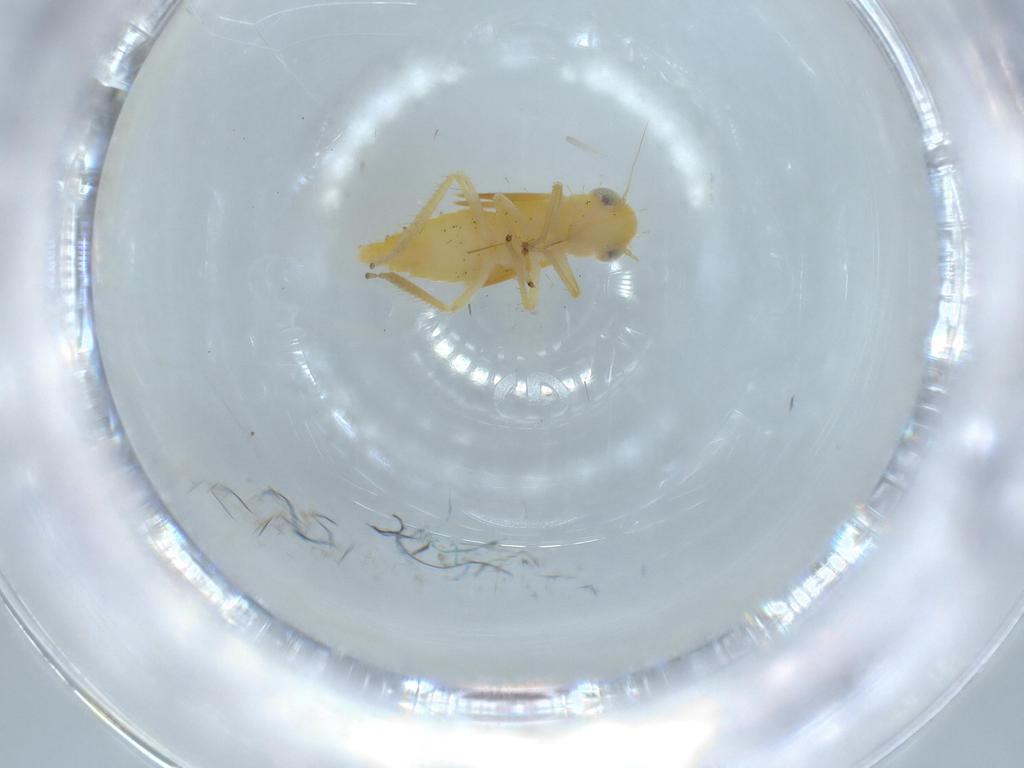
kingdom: Animalia
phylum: Arthropoda
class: Insecta
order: Hemiptera
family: Cicadellidae
